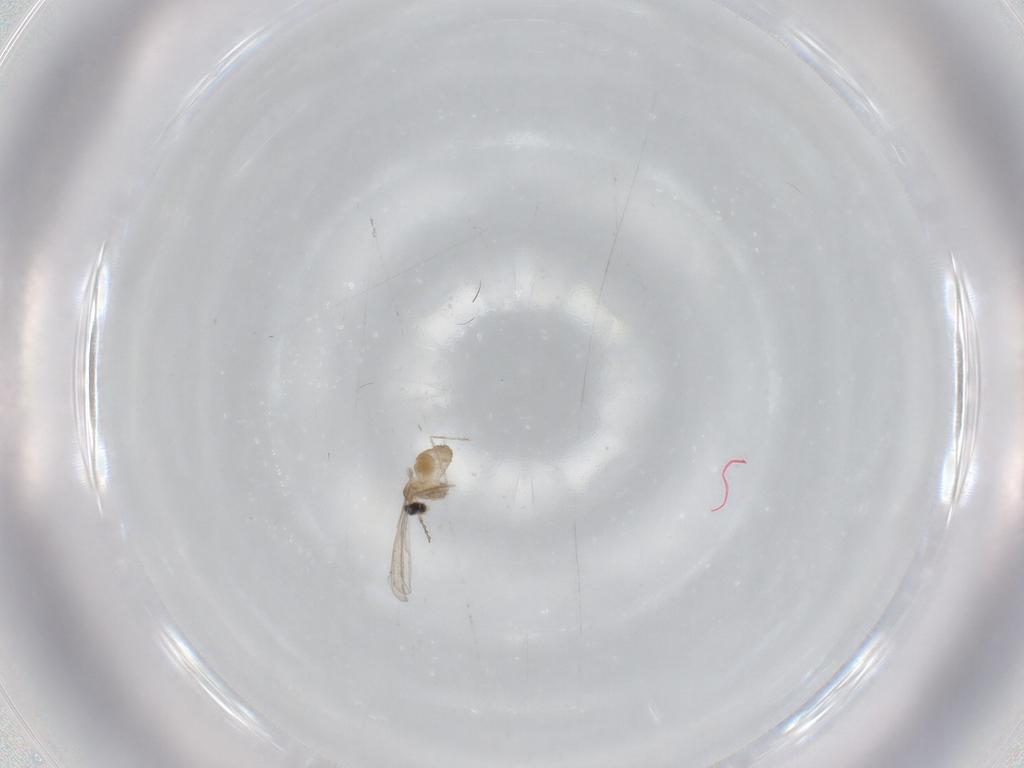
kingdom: Animalia
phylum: Arthropoda
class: Insecta
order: Diptera
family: Cecidomyiidae
